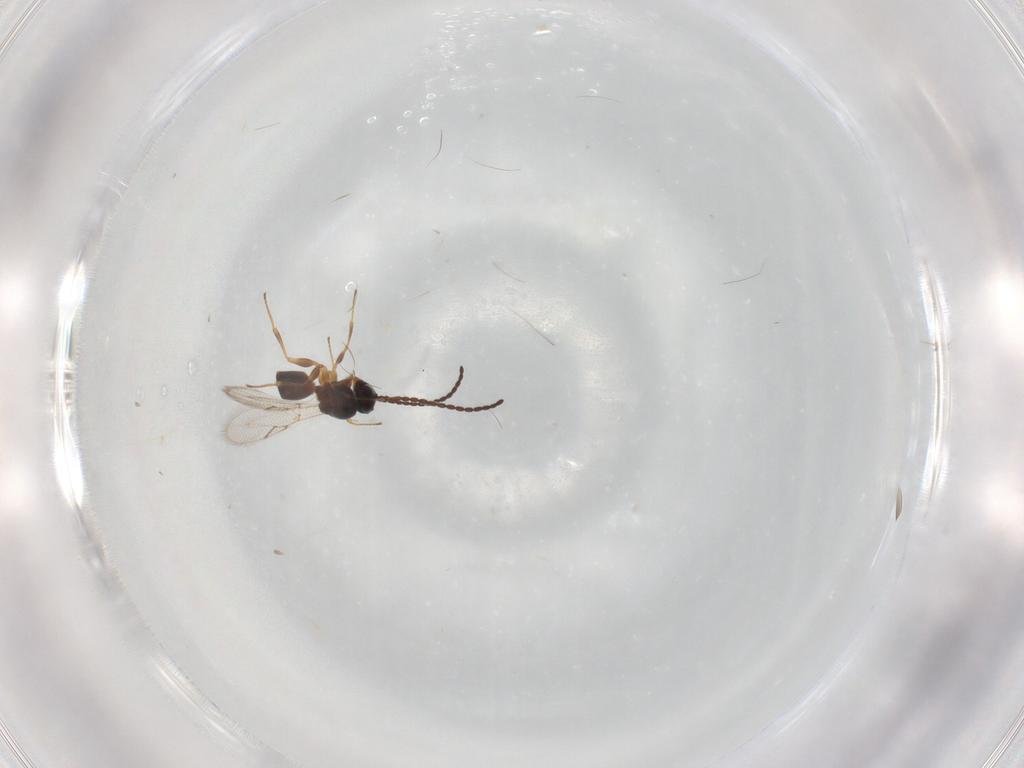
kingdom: Animalia
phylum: Arthropoda
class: Insecta
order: Hymenoptera
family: Formicidae
